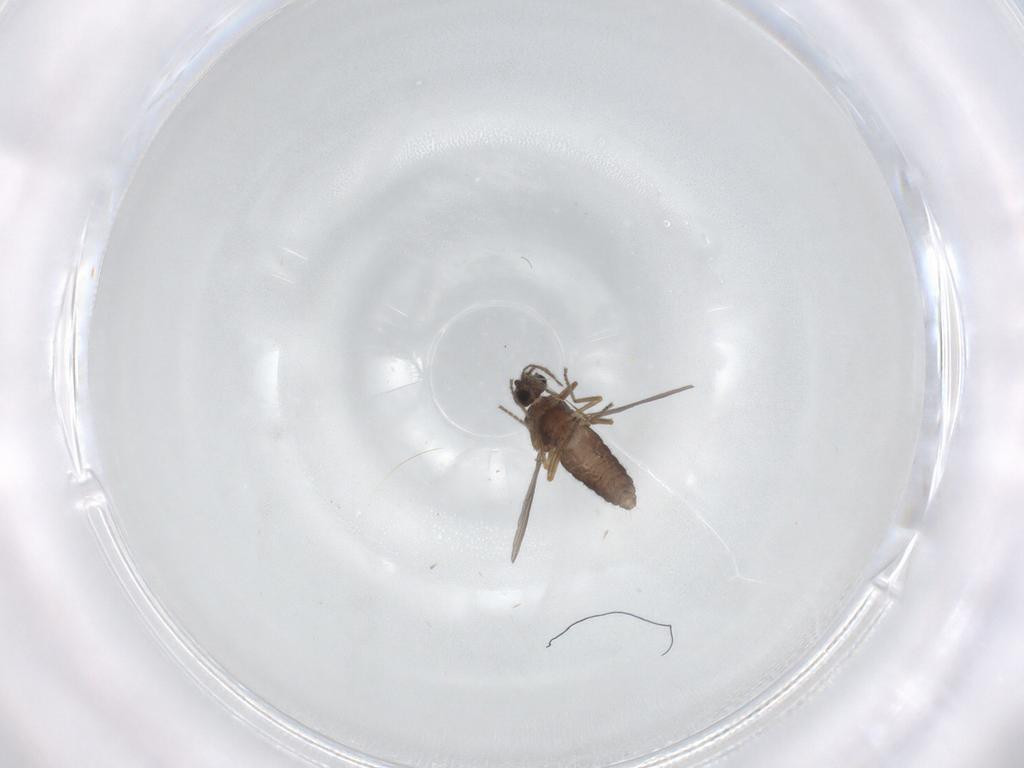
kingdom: Animalia
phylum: Arthropoda
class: Insecta
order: Diptera
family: Ceratopogonidae
